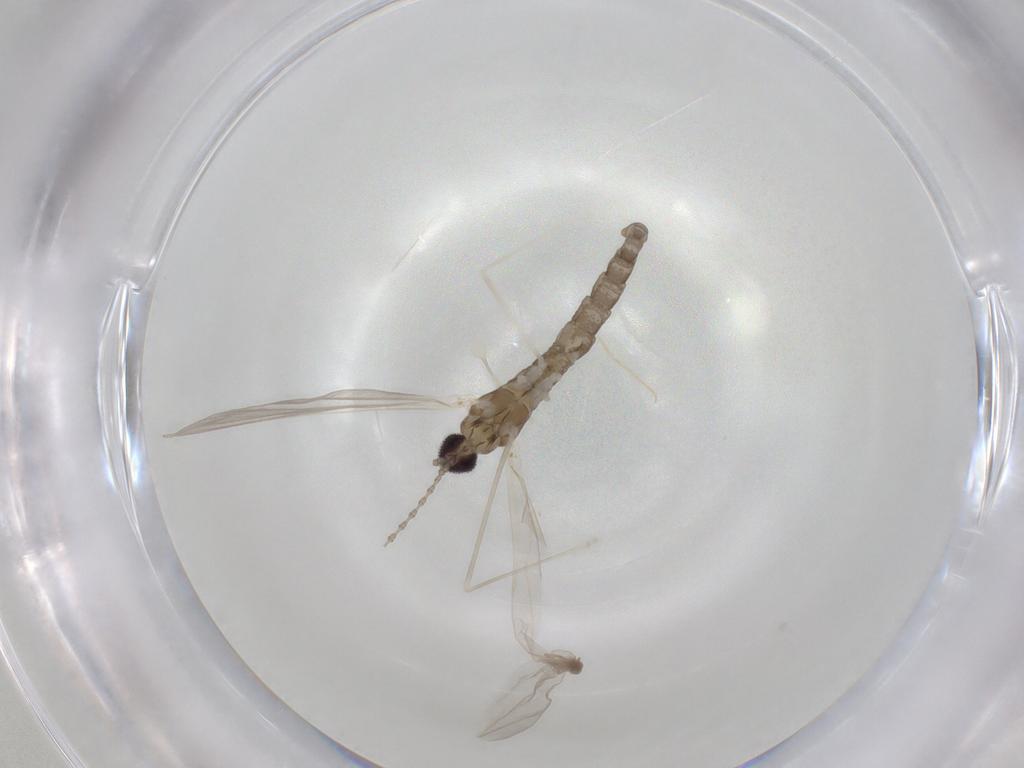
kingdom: Animalia
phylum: Arthropoda
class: Insecta
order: Diptera
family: Cecidomyiidae
